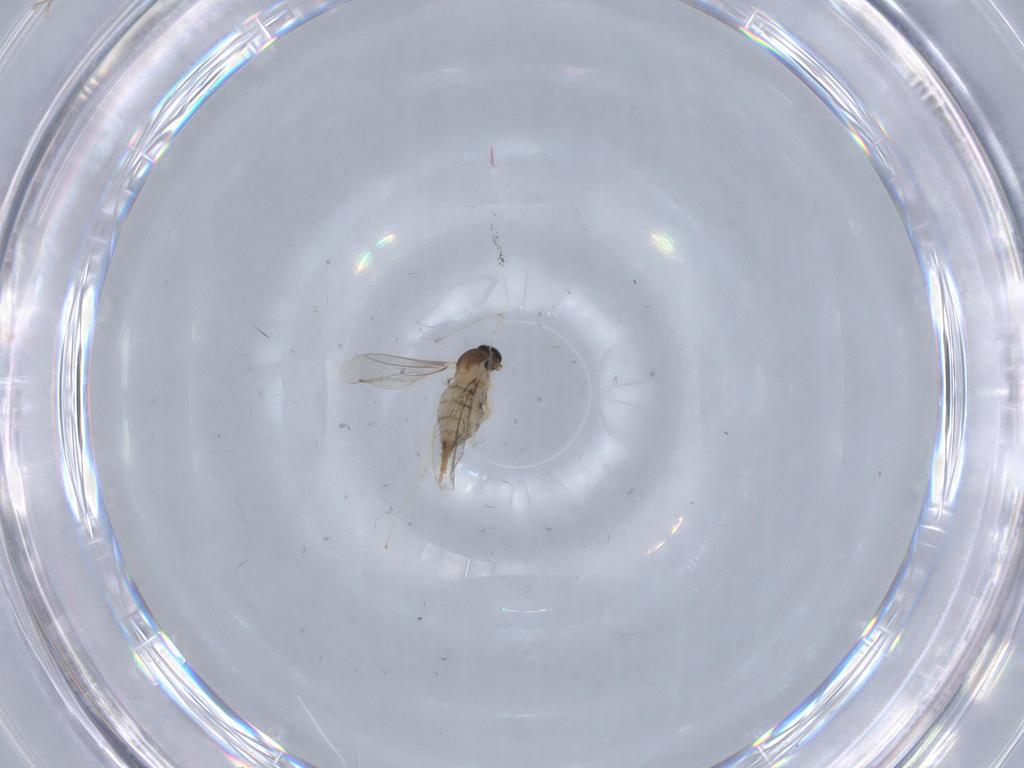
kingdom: Animalia
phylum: Arthropoda
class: Insecta
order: Diptera
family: Cecidomyiidae
